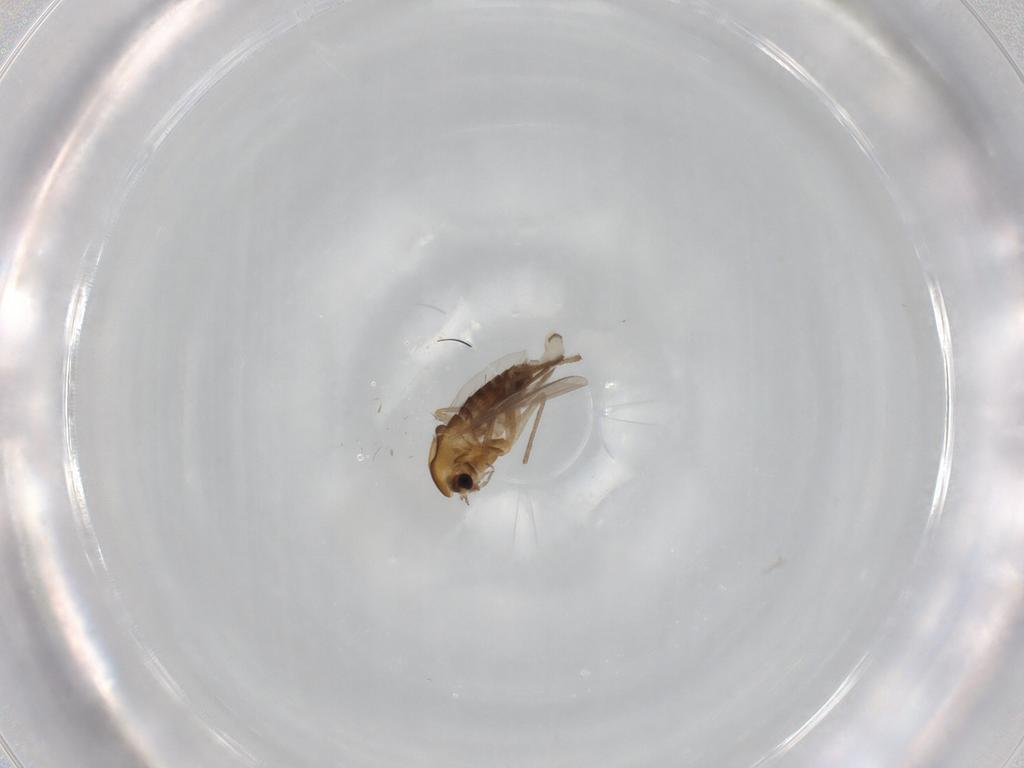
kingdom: Animalia
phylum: Arthropoda
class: Insecta
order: Diptera
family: Chironomidae
